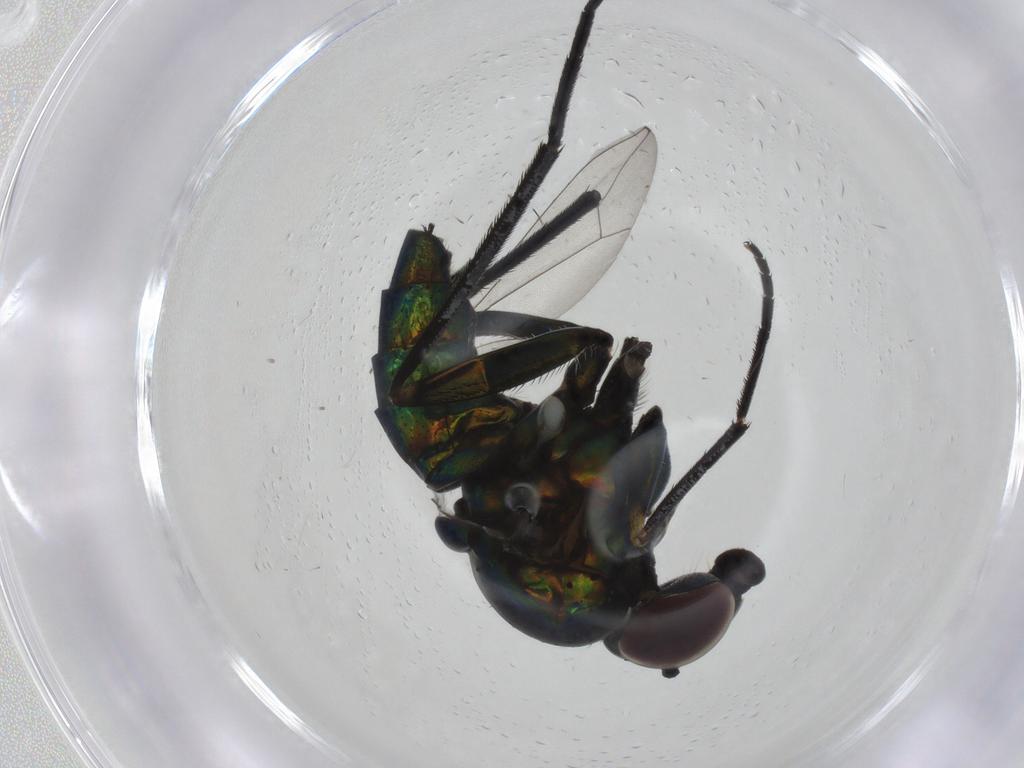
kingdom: Animalia
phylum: Arthropoda
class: Insecta
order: Diptera
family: Dolichopodidae
